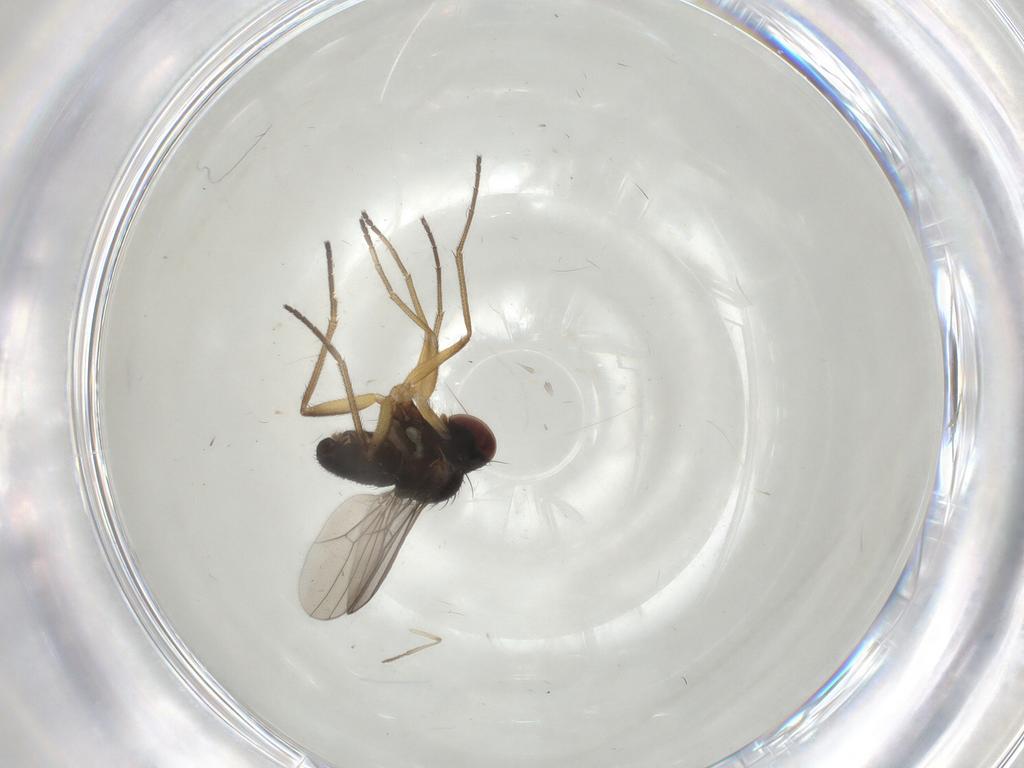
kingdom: Animalia
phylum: Arthropoda
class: Insecta
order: Diptera
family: Dolichopodidae
